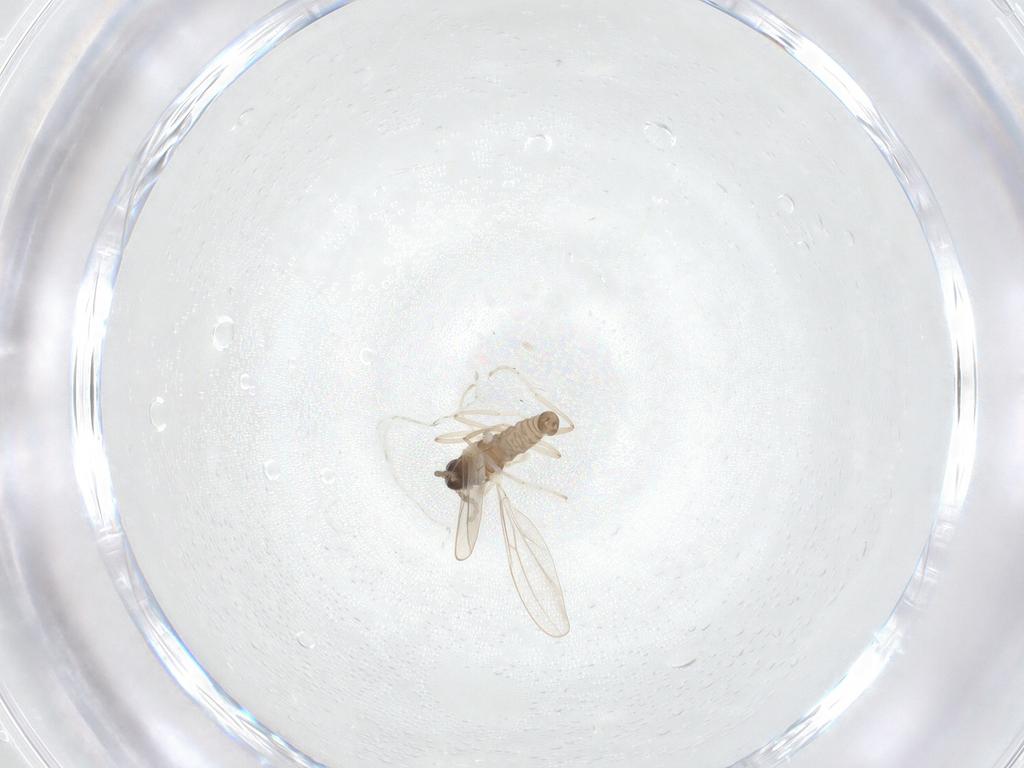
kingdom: Animalia
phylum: Arthropoda
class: Insecta
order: Diptera
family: Cecidomyiidae
